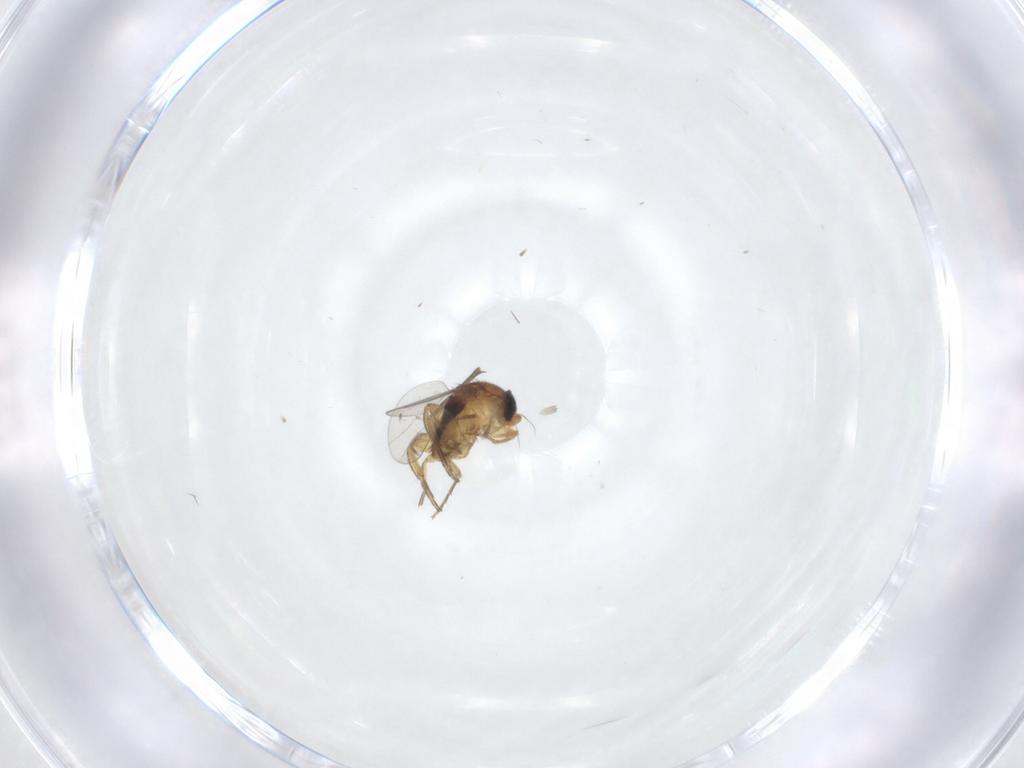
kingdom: Animalia
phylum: Arthropoda
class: Insecta
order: Diptera
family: Phoridae
